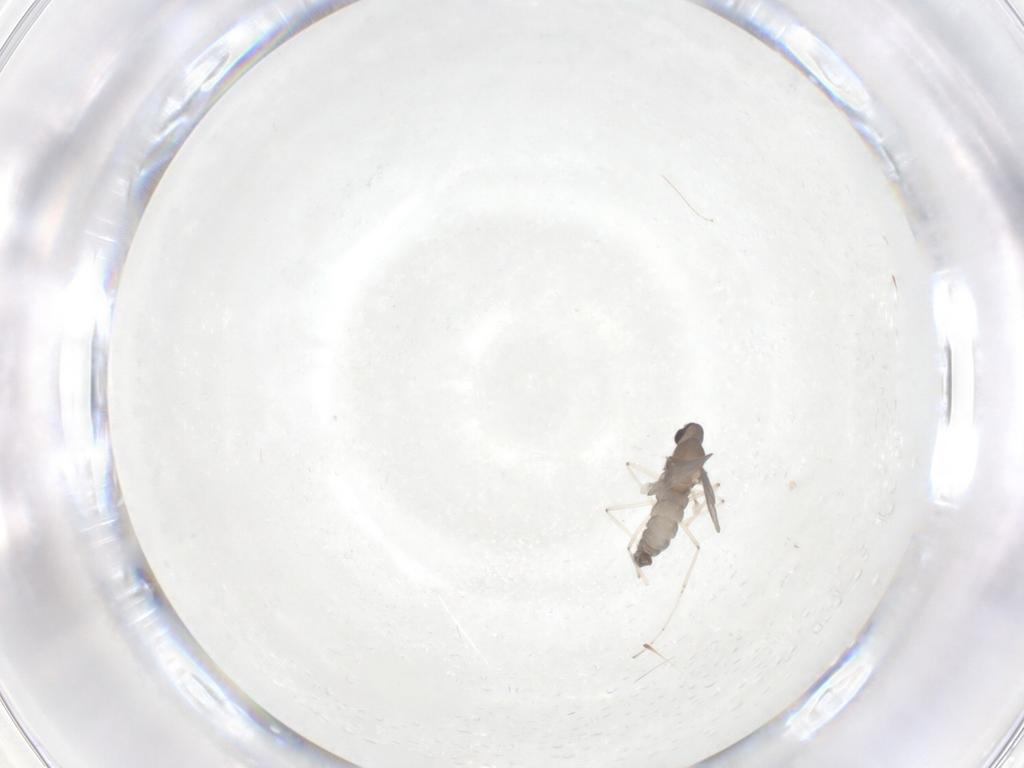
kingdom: Animalia
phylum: Arthropoda
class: Insecta
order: Diptera
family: Cecidomyiidae
